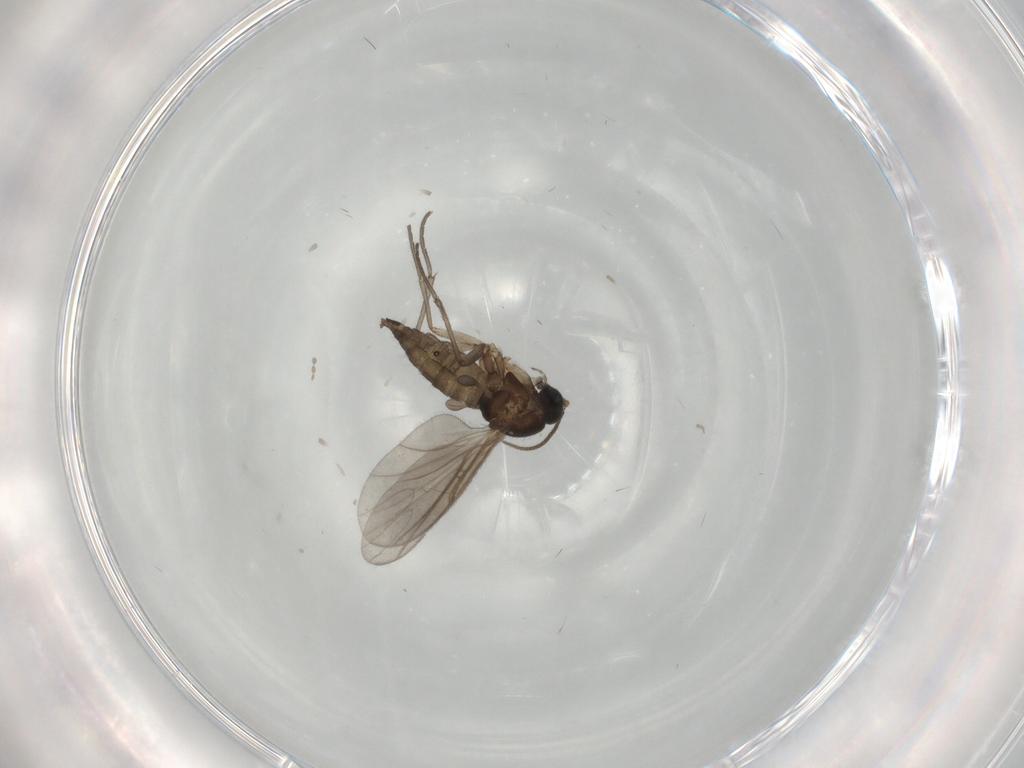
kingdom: Animalia
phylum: Arthropoda
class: Insecta
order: Diptera
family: Sciaridae
